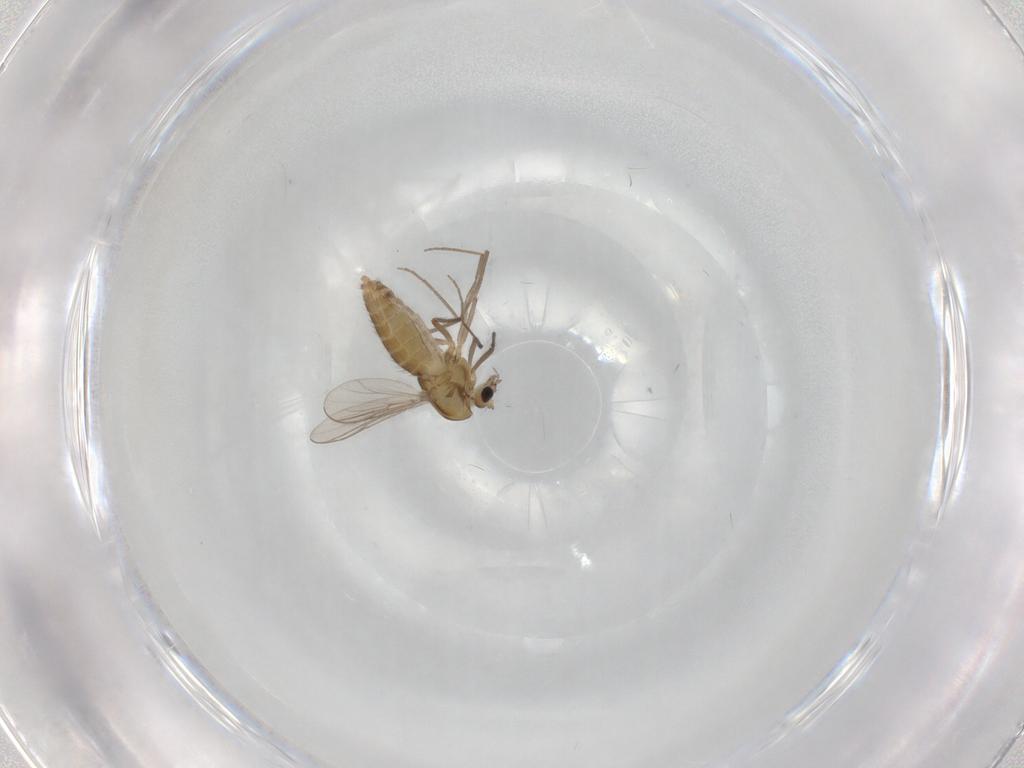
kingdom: Animalia
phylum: Arthropoda
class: Insecta
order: Diptera
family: Chironomidae
